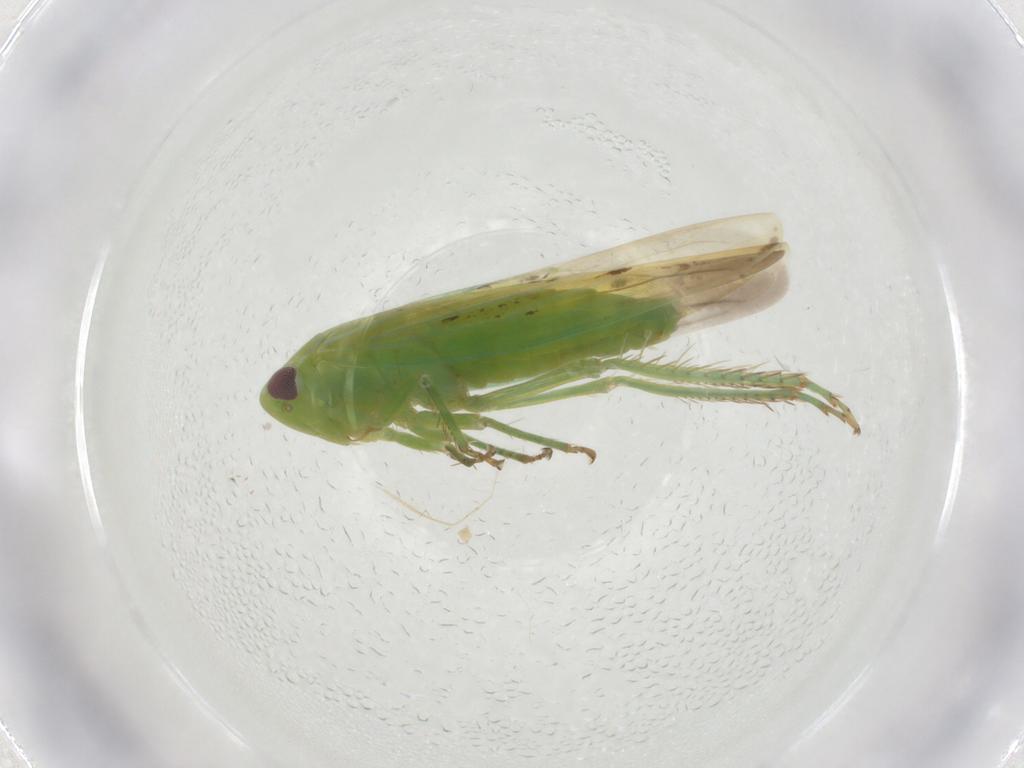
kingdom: Animalia
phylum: Arthropoda
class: Insecta
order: Hemiptera
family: Cicadellidae
